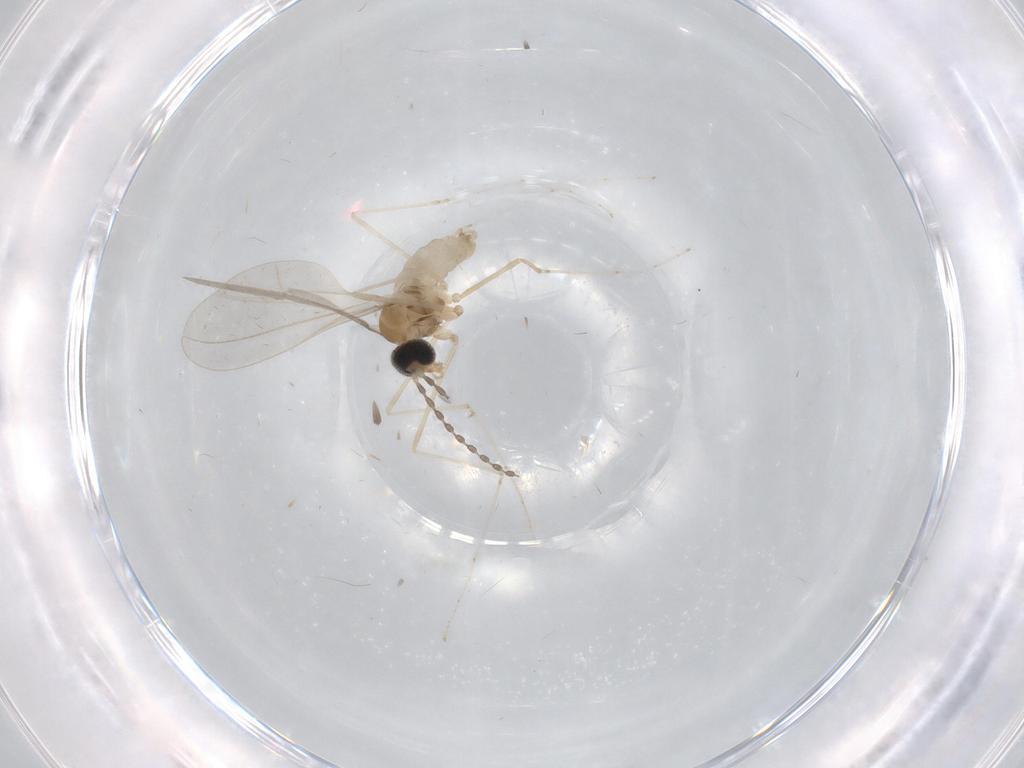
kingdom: Animalia
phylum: Arthropoda
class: Insecta
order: Diptera
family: Cecidomyiidae
